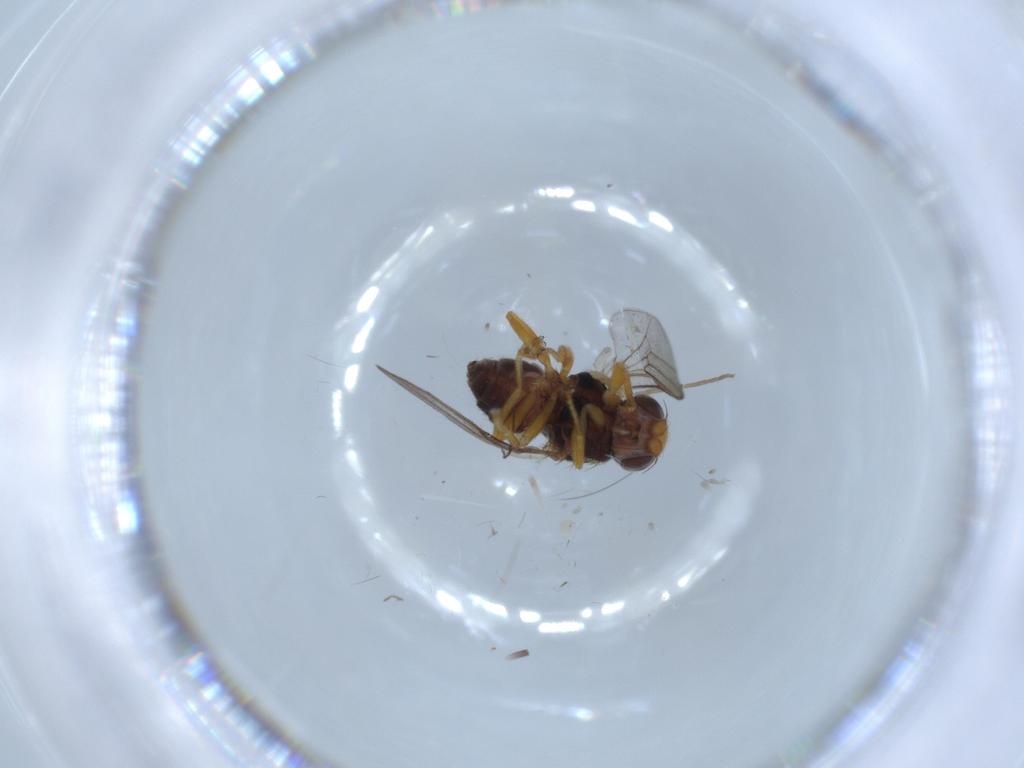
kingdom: Animalia
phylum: Arthropoda
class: Insecta
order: Diptera
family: Chloropidae
